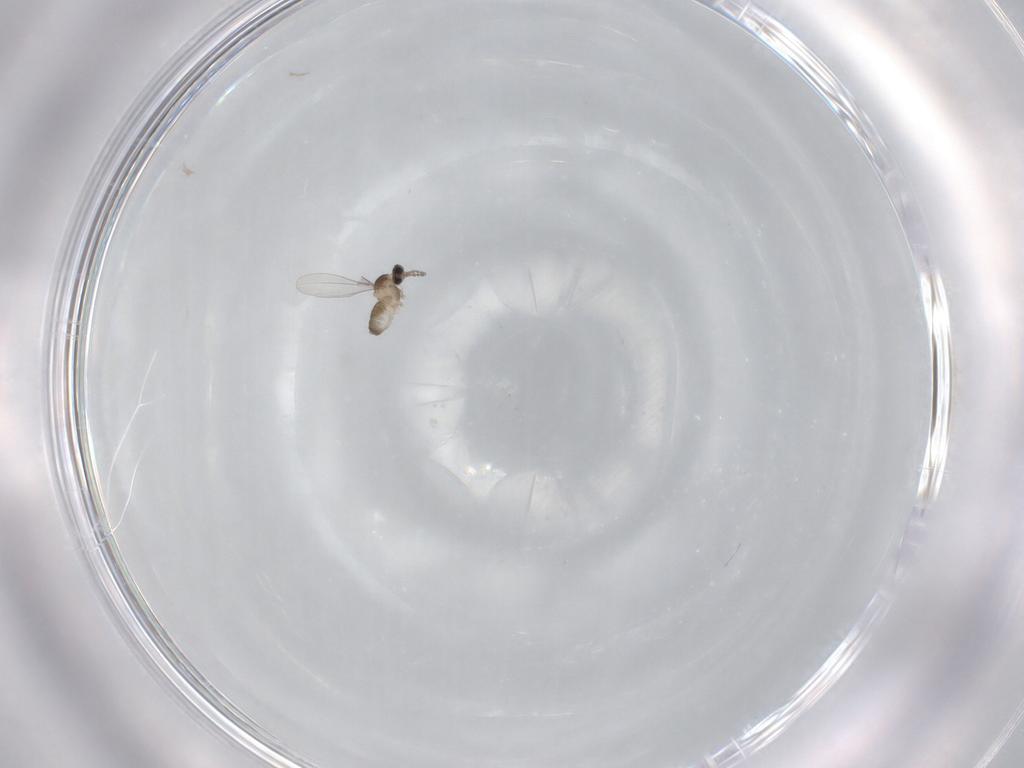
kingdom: Animalia
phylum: Arthropoda
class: Insecta
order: Diptera
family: Cecidomyiidae
